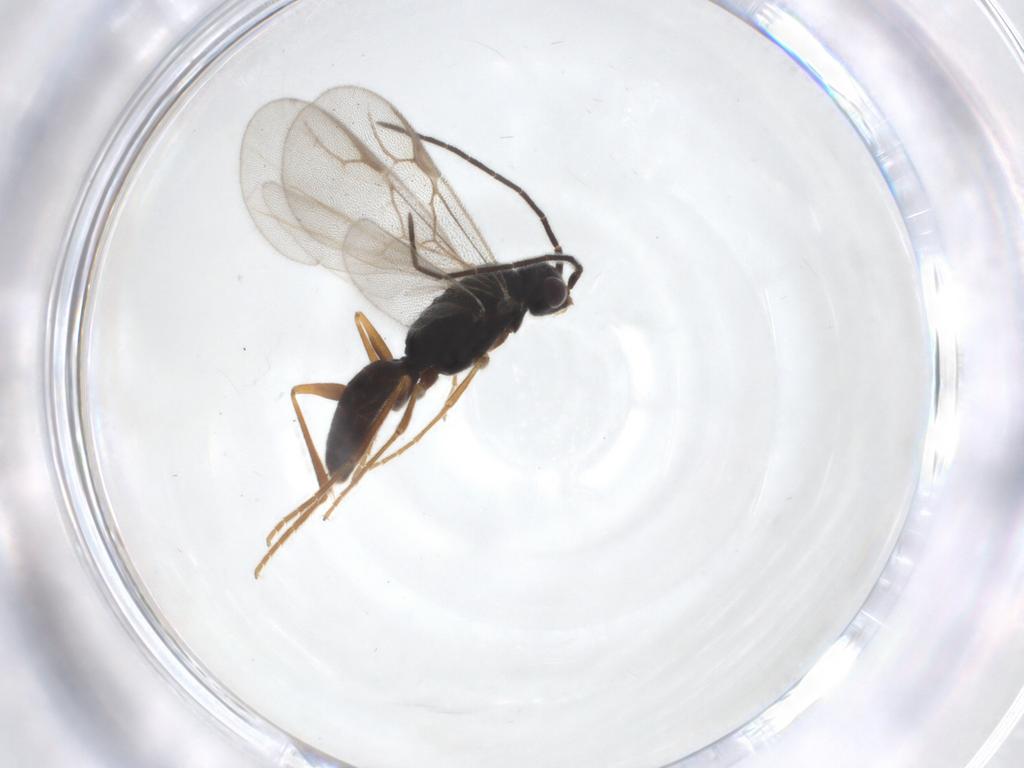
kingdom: Animalia
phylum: Arthropoda
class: Insecta
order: Hymenoptera
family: Dryinidae
